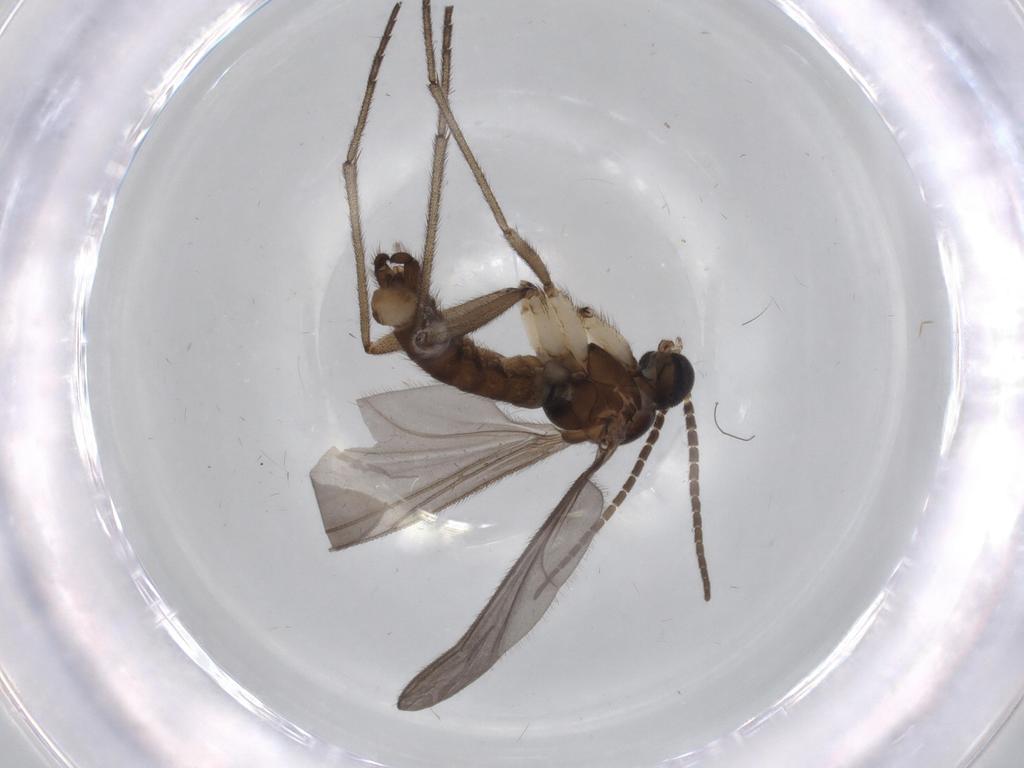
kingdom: Animalia
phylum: Arthropoda
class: Insecta
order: Diptera
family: Sciaridae
